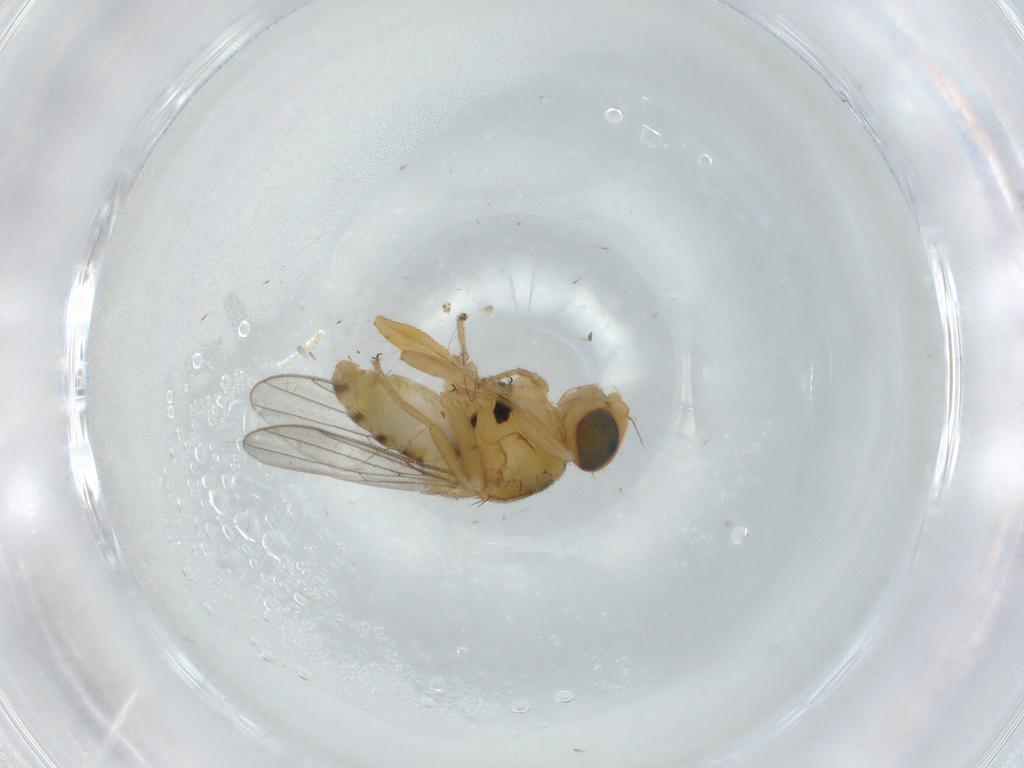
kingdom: Animalia
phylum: Arthropoda
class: Insecta
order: Diptera
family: Chloropidae
